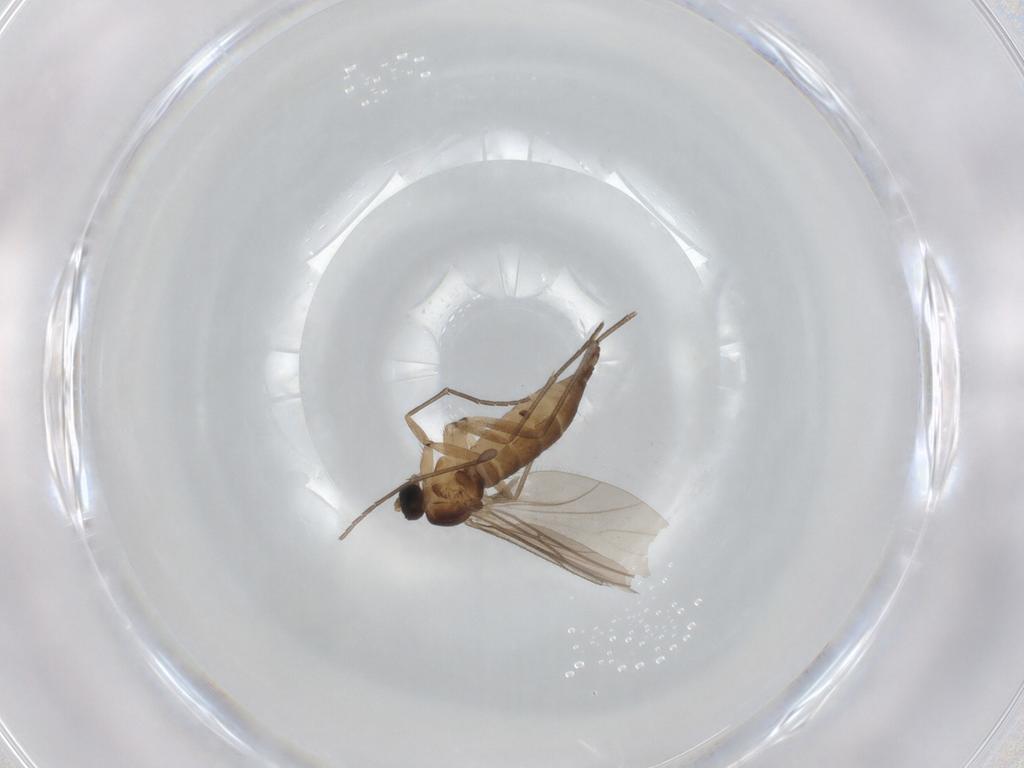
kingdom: Animalia
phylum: Arthropoda
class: Insecta
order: Diptera
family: Sciaridae
